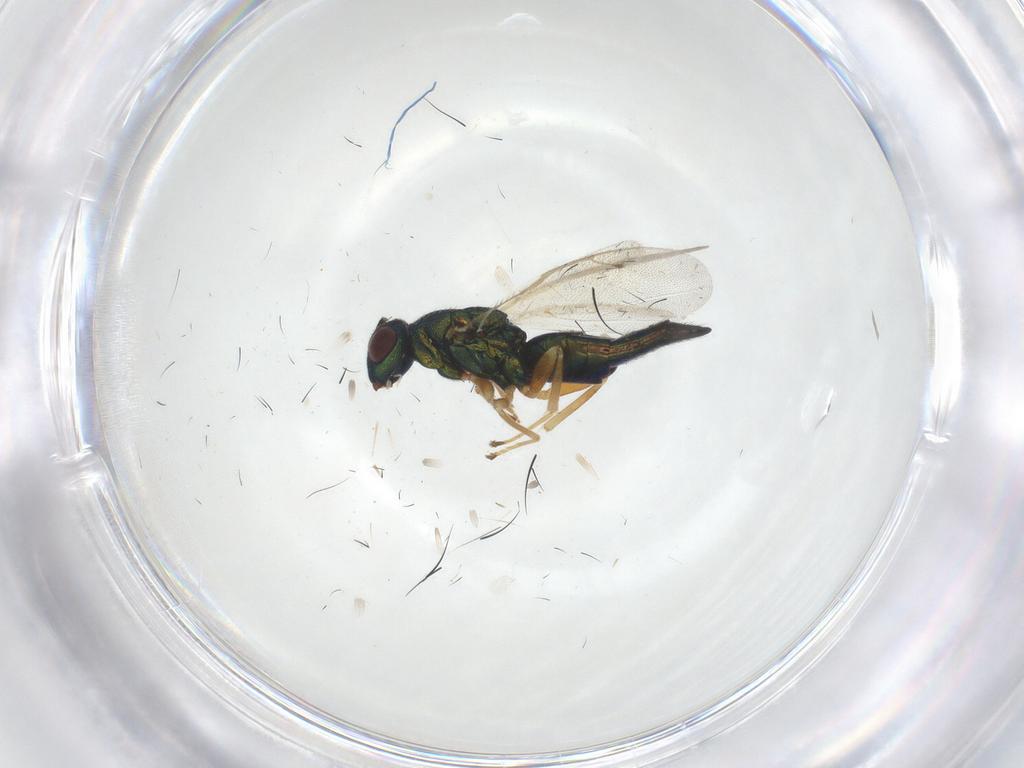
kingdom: Animalia
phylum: Arthropoda
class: Insecta
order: Hymenoptera
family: Pteromalidae
